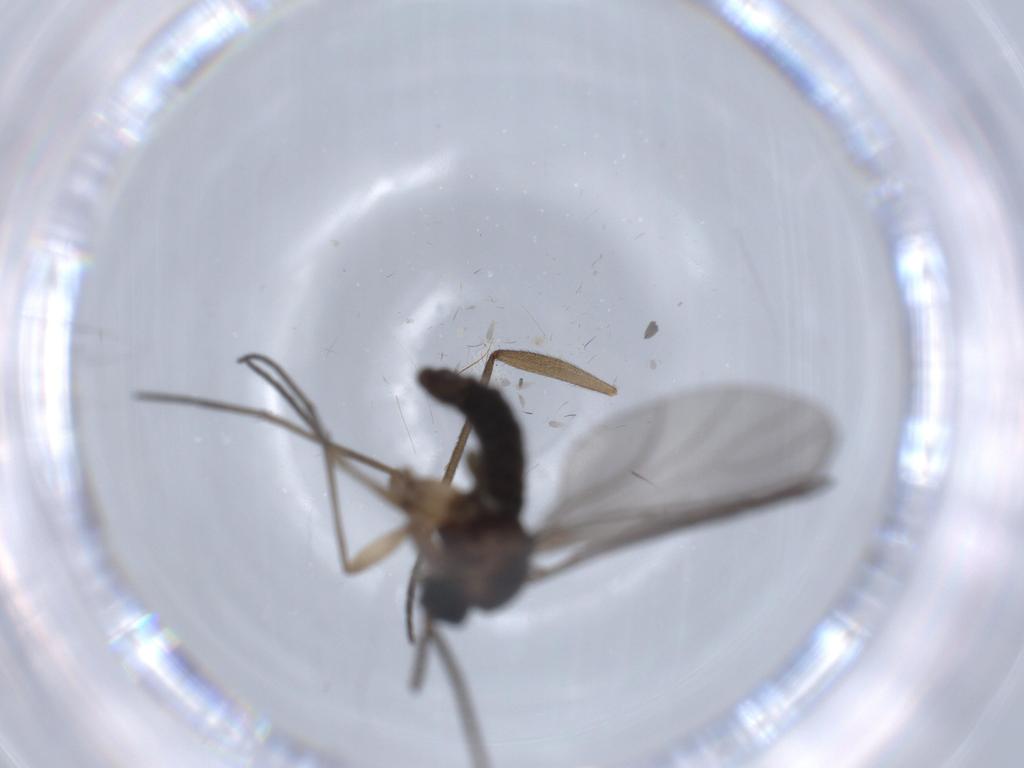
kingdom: Animalia
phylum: Arthropoda
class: Insecta
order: Diptera
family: Sciaridae
